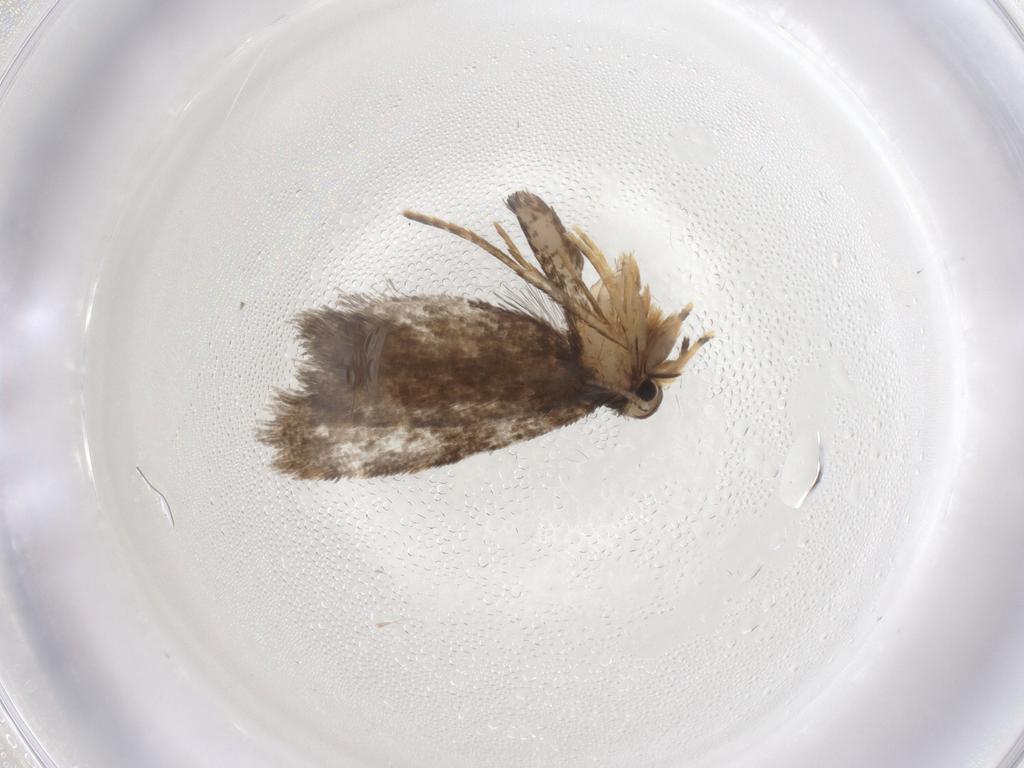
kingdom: Animalia
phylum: Arthropoda
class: Insecta
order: Lepidoptera
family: Psychidae
